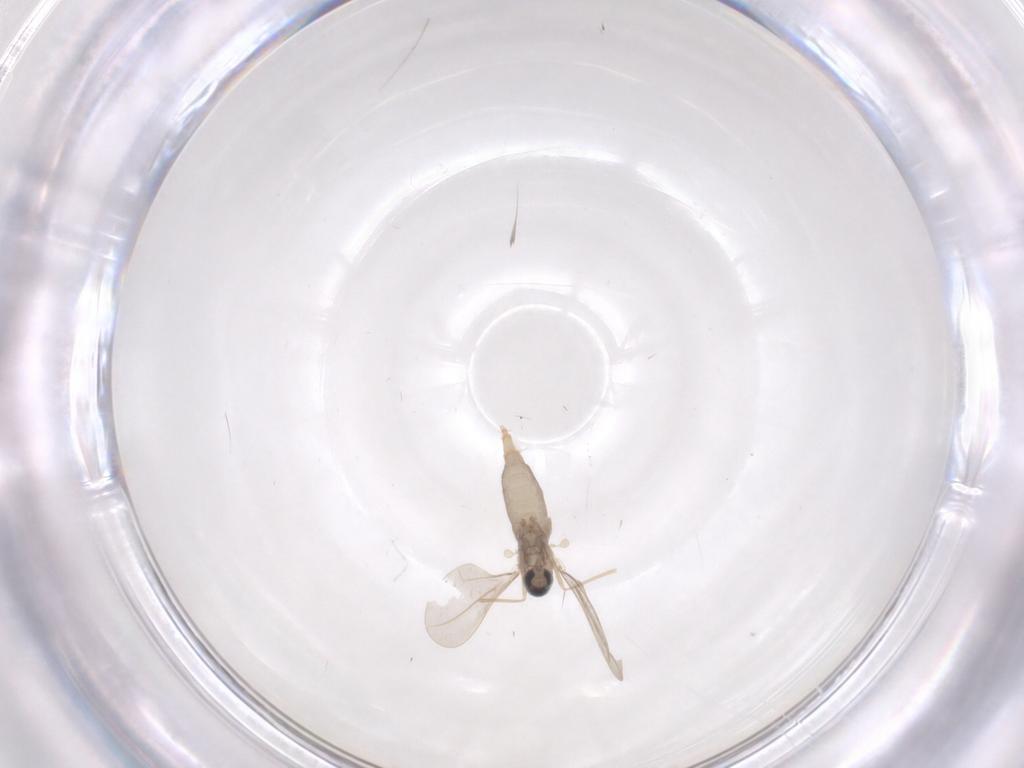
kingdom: Animalia
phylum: Arthropoda
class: Insecta
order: Diptera
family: Cecidomyiidae
